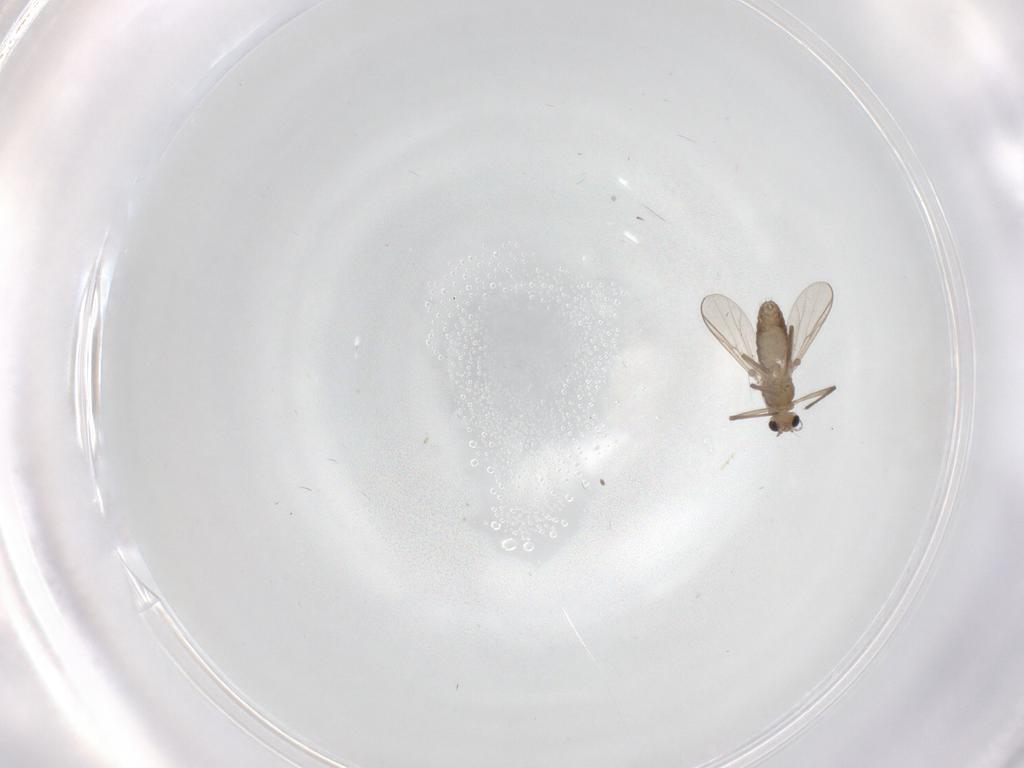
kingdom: Animalia
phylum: Arthropoda
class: Insecta
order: Diptera
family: Chironomidae
